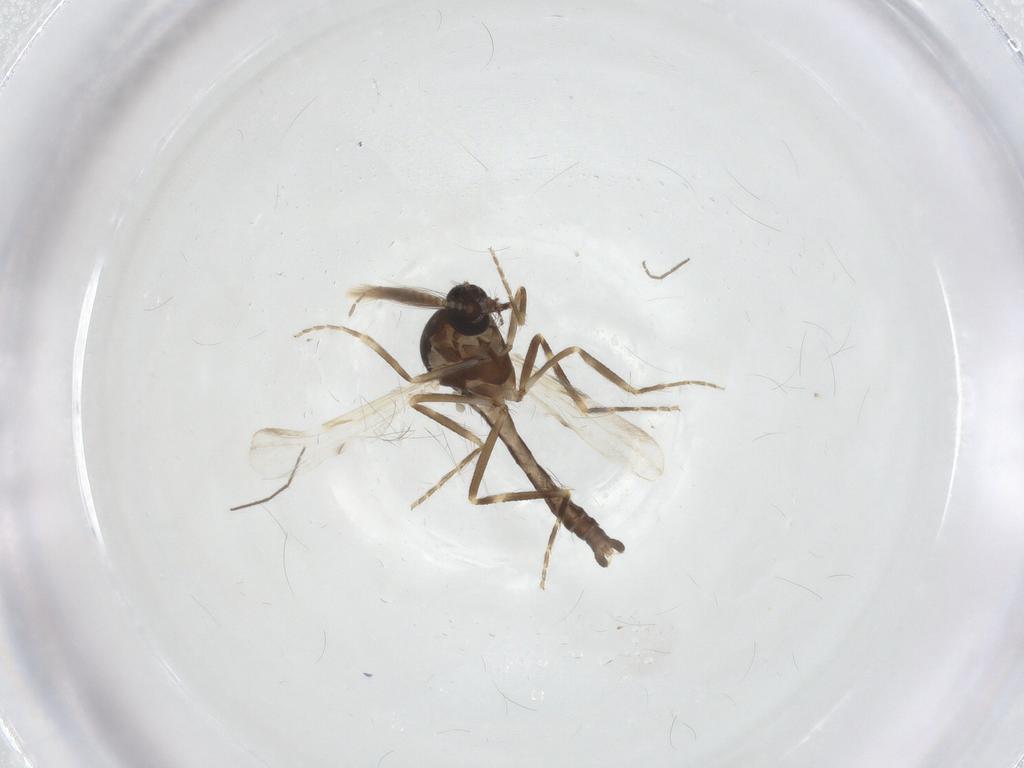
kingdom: Animalia
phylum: Arthropoda
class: Insecta
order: Diptera
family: Ceratopogonidae
